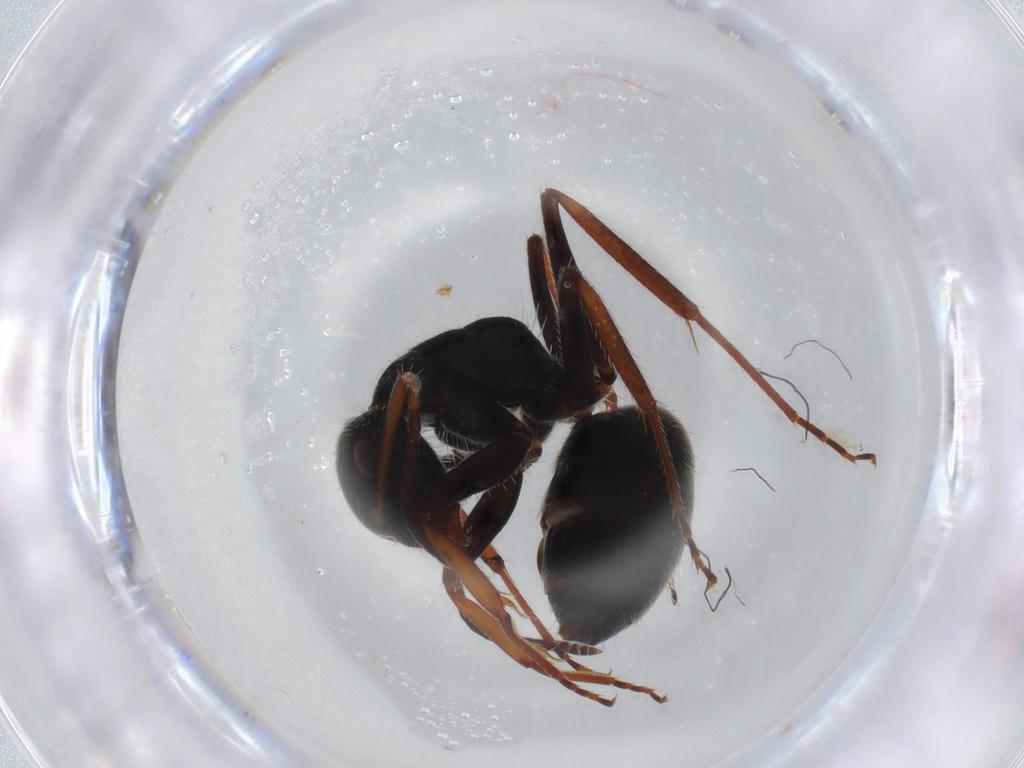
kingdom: Animalia
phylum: Arthropoda
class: Insecta
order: Hymenoptera
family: Formicidae
